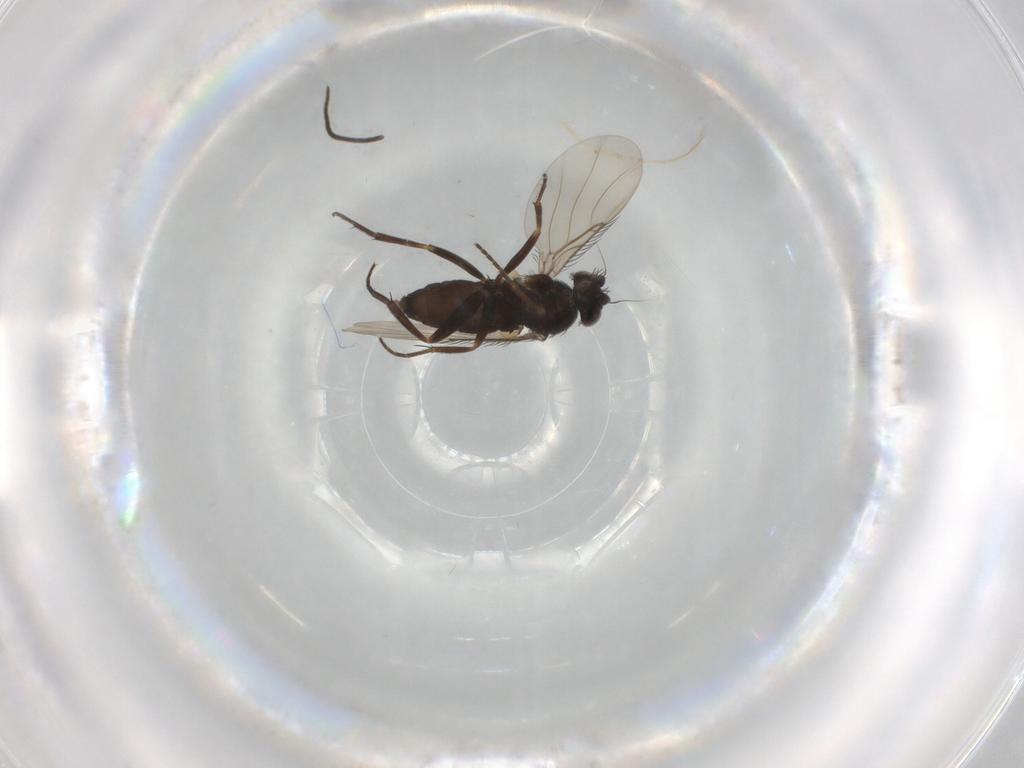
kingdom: Animalia
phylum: Arthropoda
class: Insecta
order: Diptera
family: Phoridae
